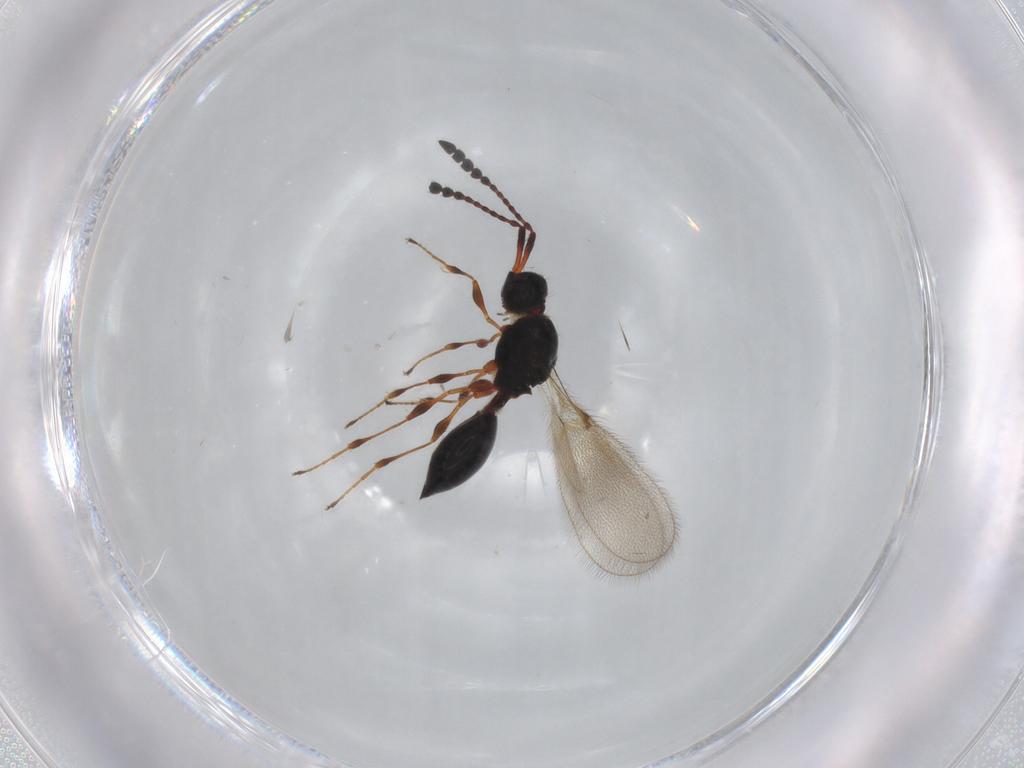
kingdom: Animalia
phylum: Arthropoda
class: Insecta
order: Hymenoptera
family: Diapriidae
